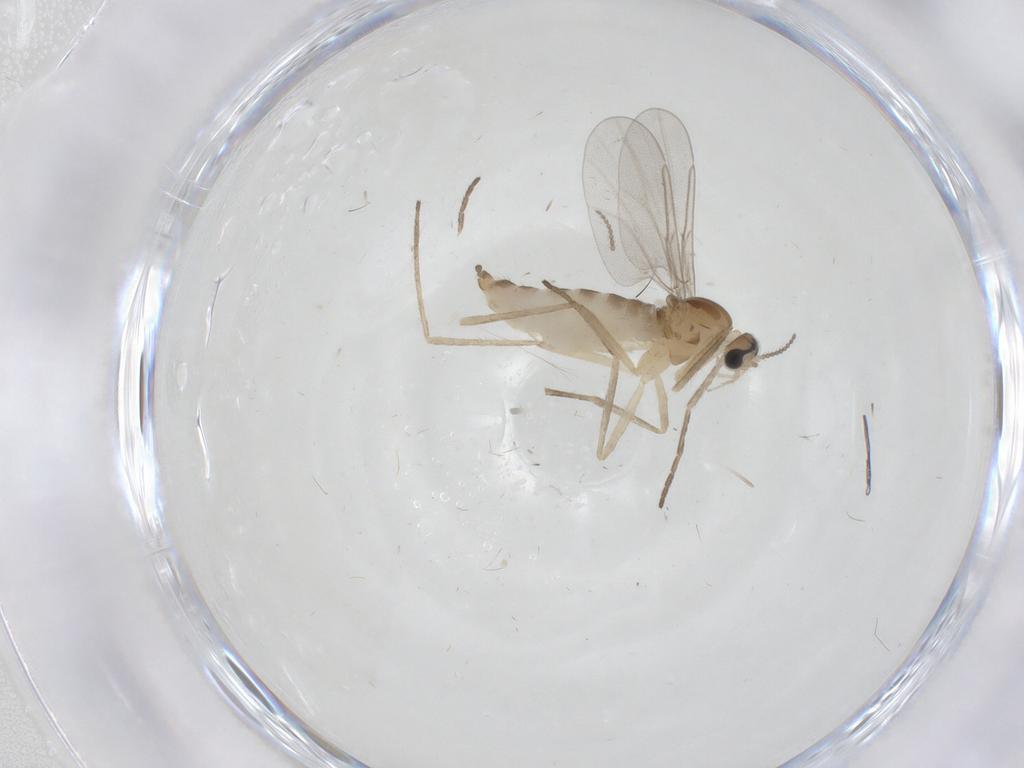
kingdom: Animalia
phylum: Arthropoda
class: Insecta
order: Diptera
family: Cecidomyiidae
